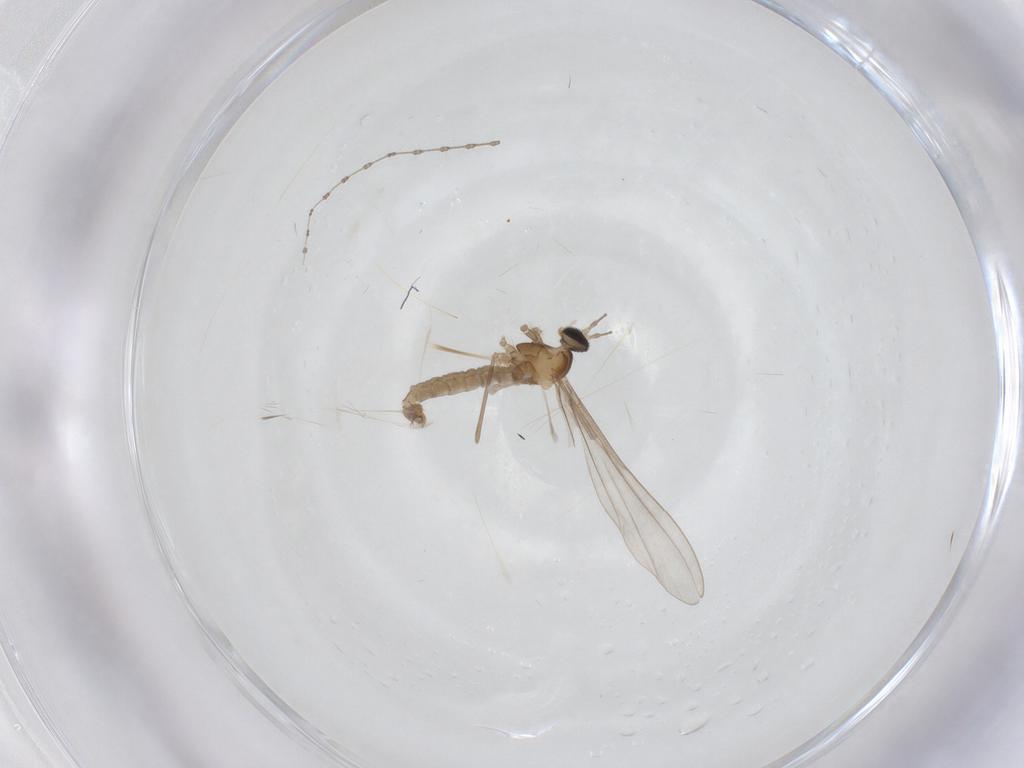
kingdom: Animalia
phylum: Arthropoda
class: Insecta
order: Diptera
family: Cecidomyiidae
